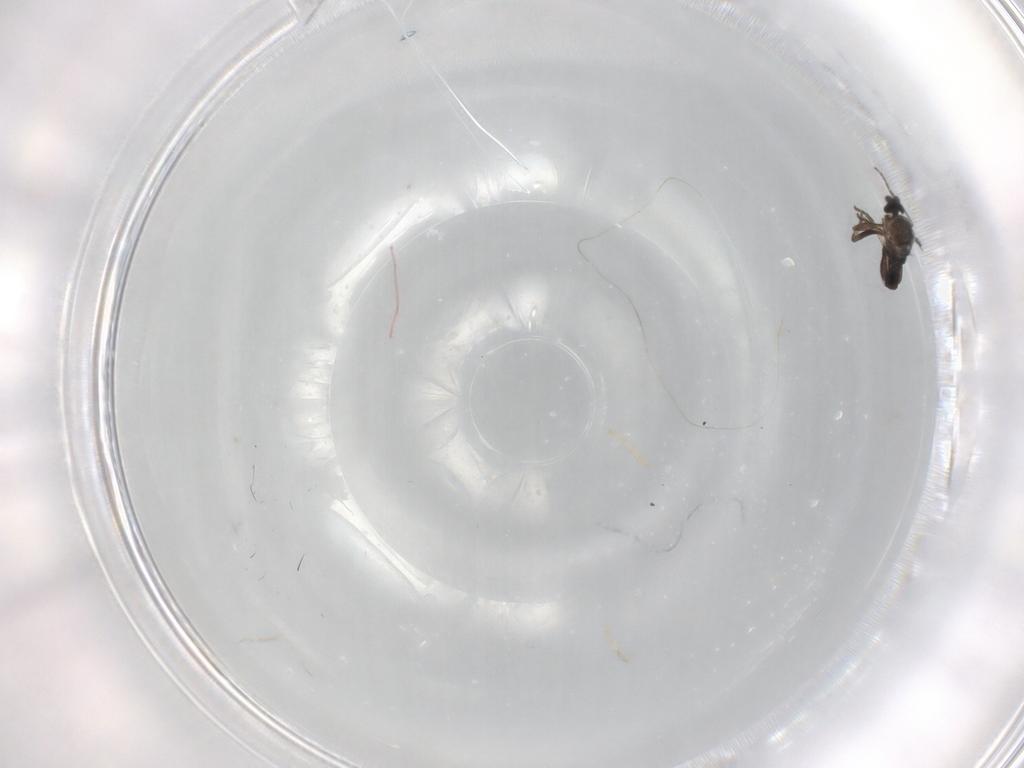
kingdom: Animalia
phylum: Arthropoda
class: Insecta
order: Diptera
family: Phoridae
